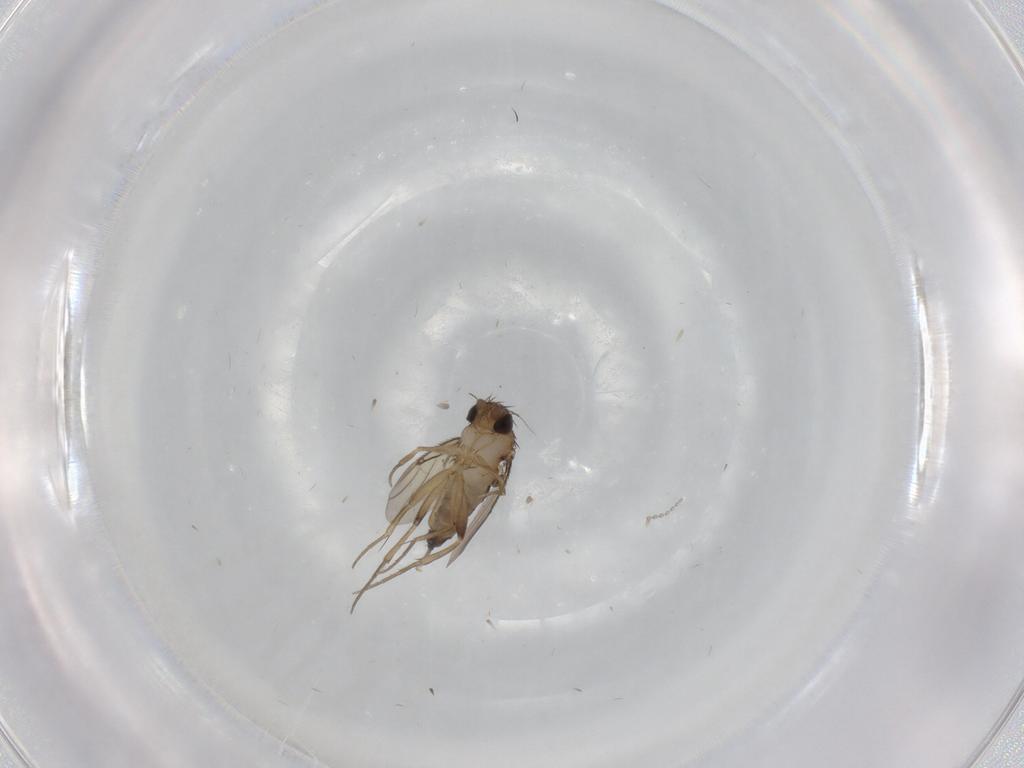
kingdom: Animalia
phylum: Arthropoda
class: Insecta
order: Diptera
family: Phoridae
